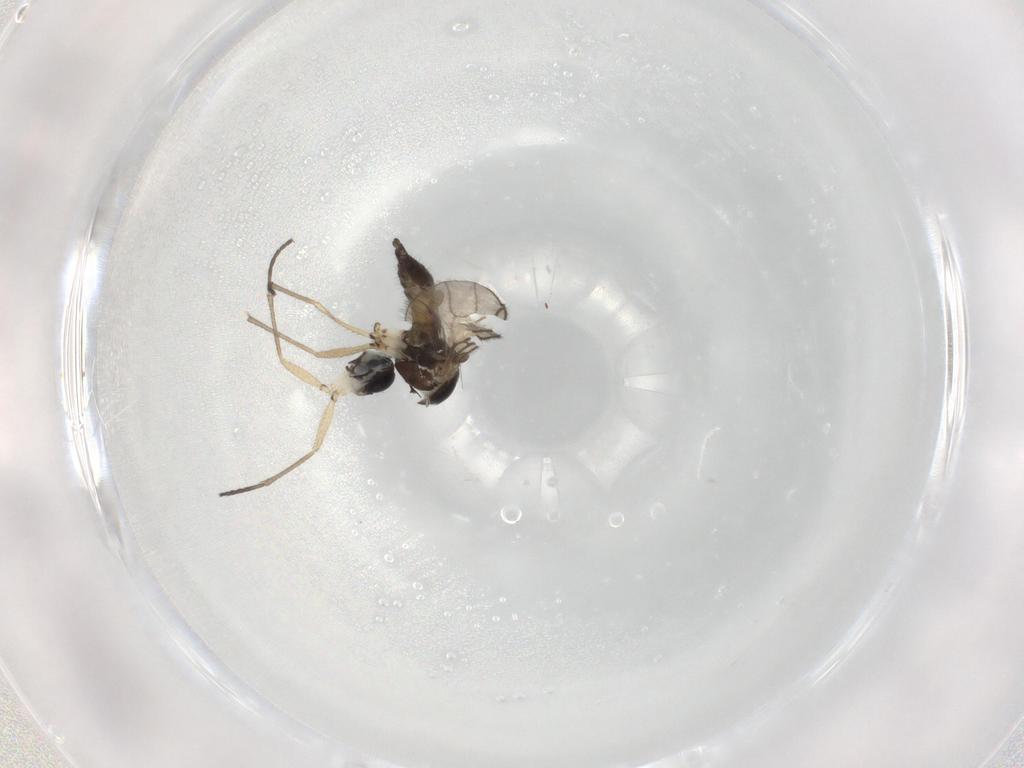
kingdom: Animalia
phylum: Arthropoda
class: Insecta
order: Diptera
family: Sciaridae
